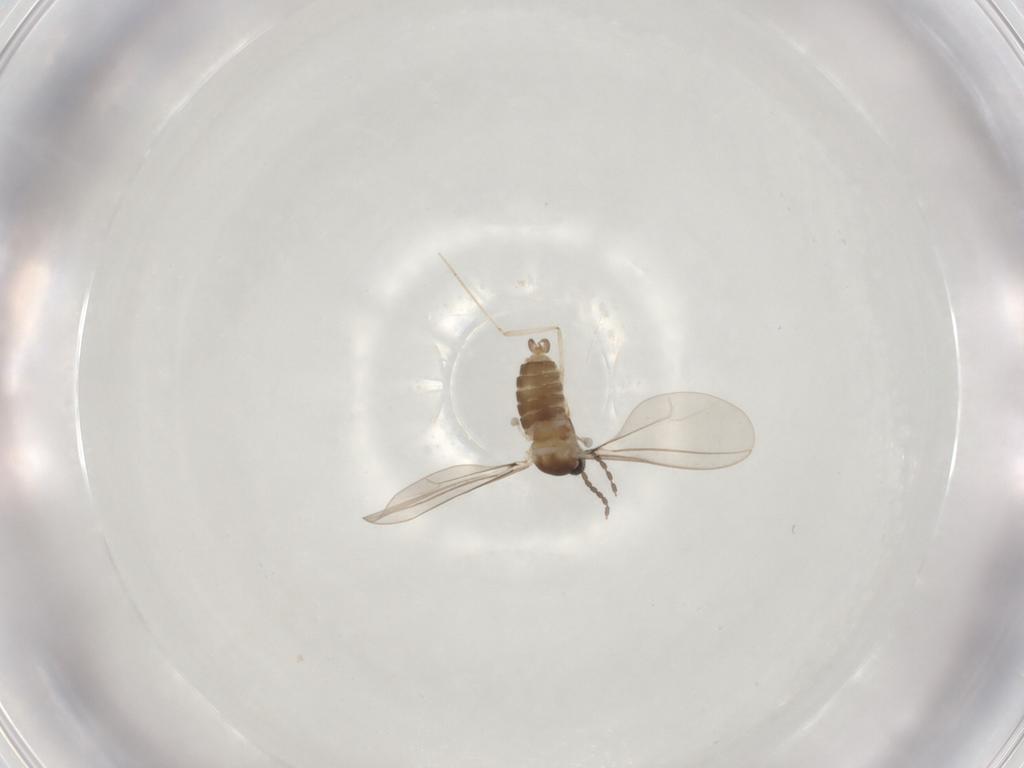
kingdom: Animalia
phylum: Arthropoda
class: Insecta
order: Diptera
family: Cecidomyiidae
